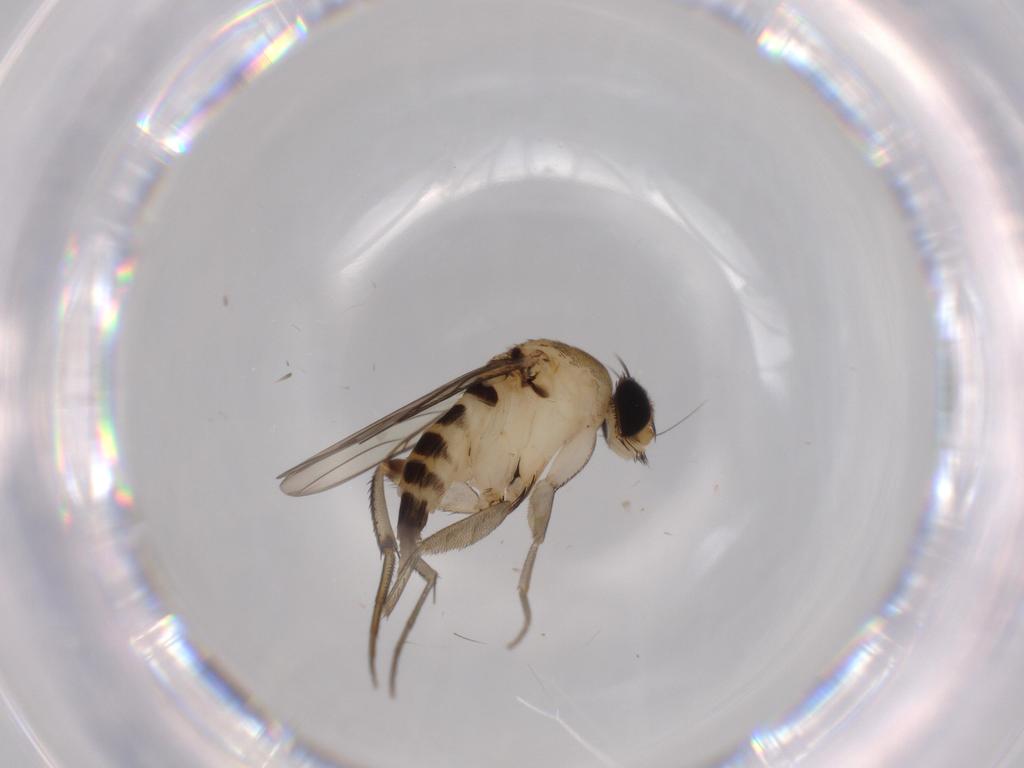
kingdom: Animalia
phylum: Arthropoda
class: Insecta
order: Diptera
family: Phoridae
